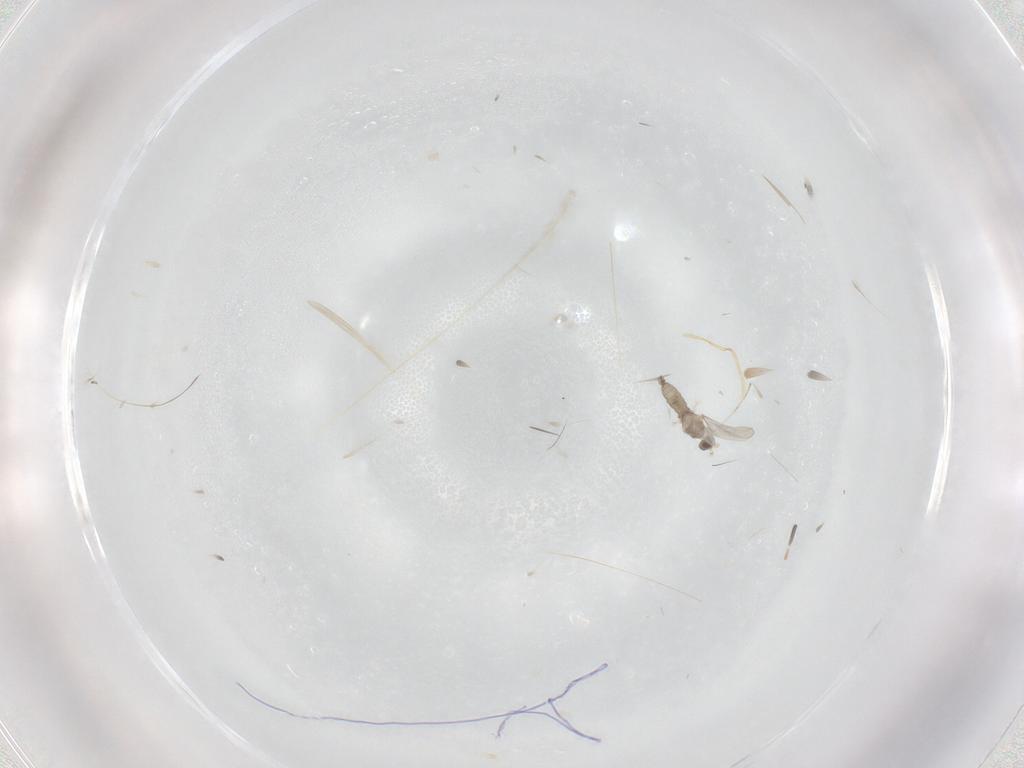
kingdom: Animalia
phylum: Arthropoda
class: Insecta
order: Diptera
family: Cecidomyiidae
